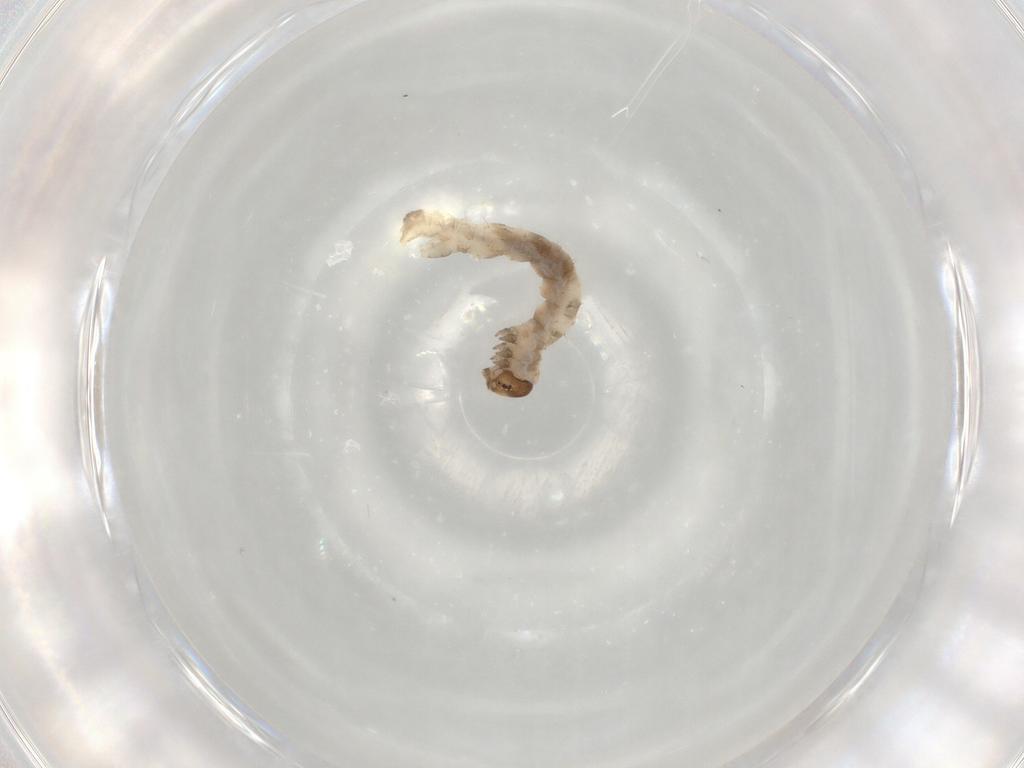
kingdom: Animalia
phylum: Arthropoda
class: Insecta
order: Lepidoptera
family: Geometridae
